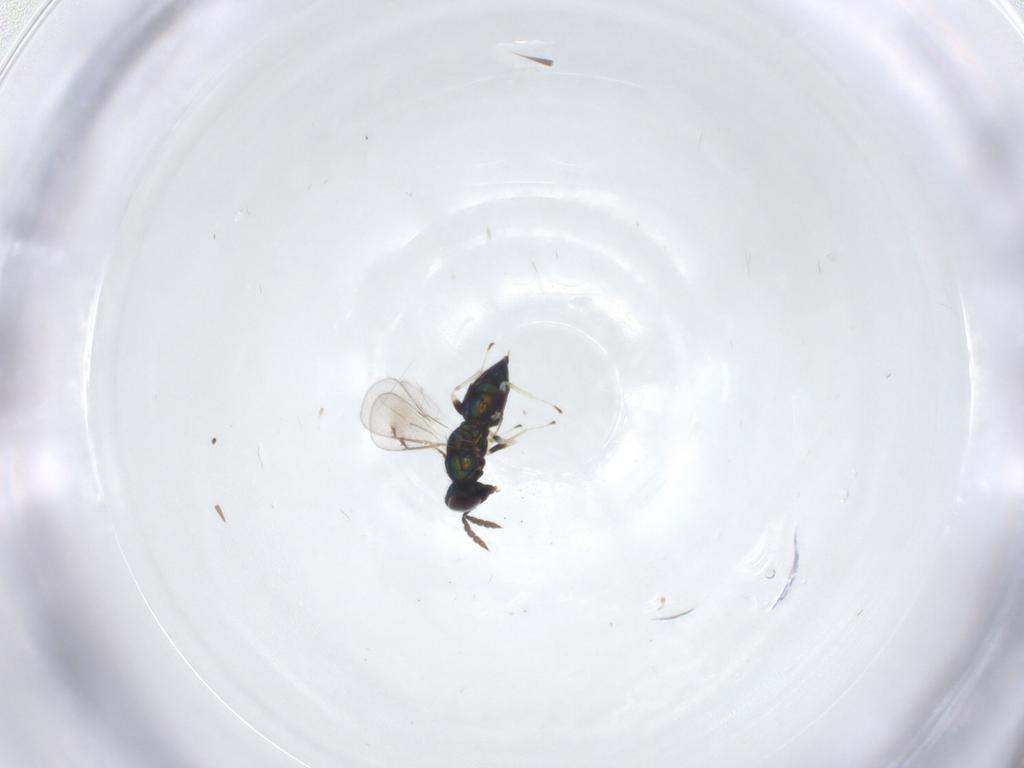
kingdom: Animalia
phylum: Arthropoda
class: Insecta
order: Hymenoptera
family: Eulophidae
